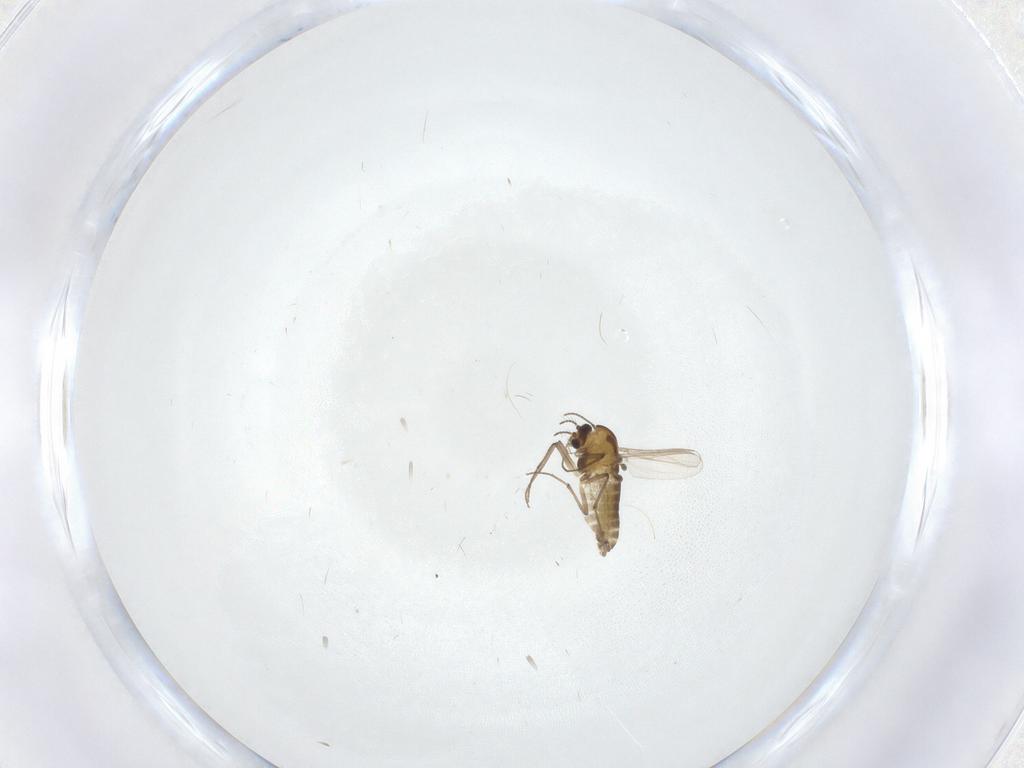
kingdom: Animalia
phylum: Arthropoda
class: Insecta
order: Diptera
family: Chironomidae
